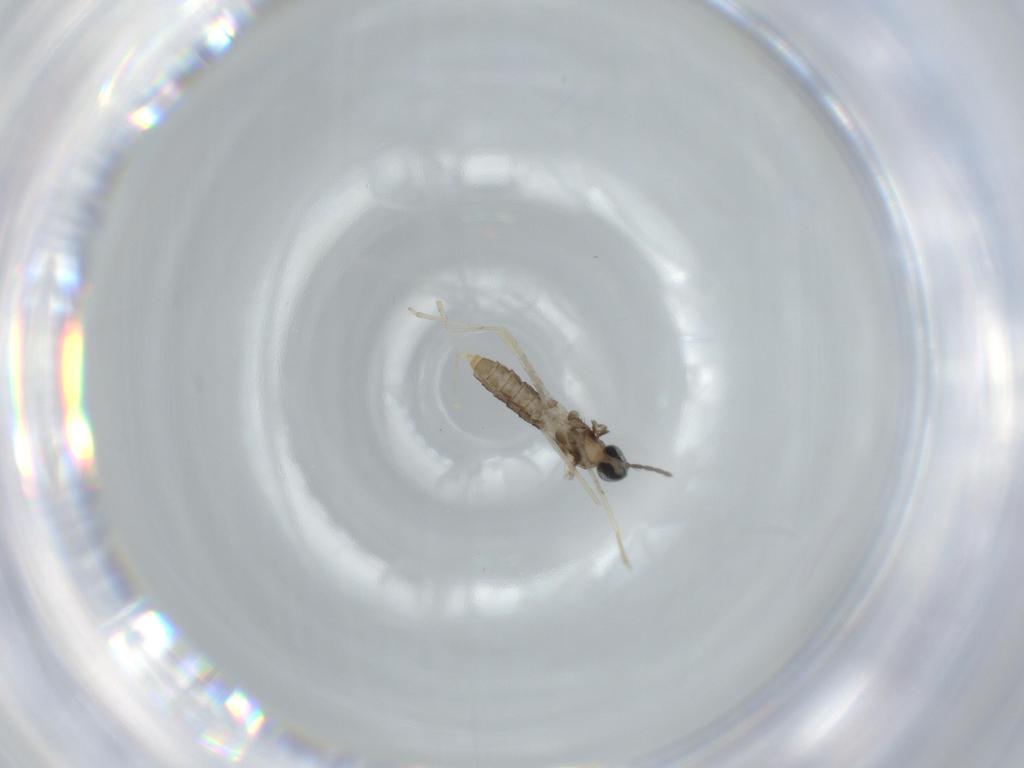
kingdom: Animalia
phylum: Arthropoda
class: Insecta
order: Diptera
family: Cecidomyiidae
